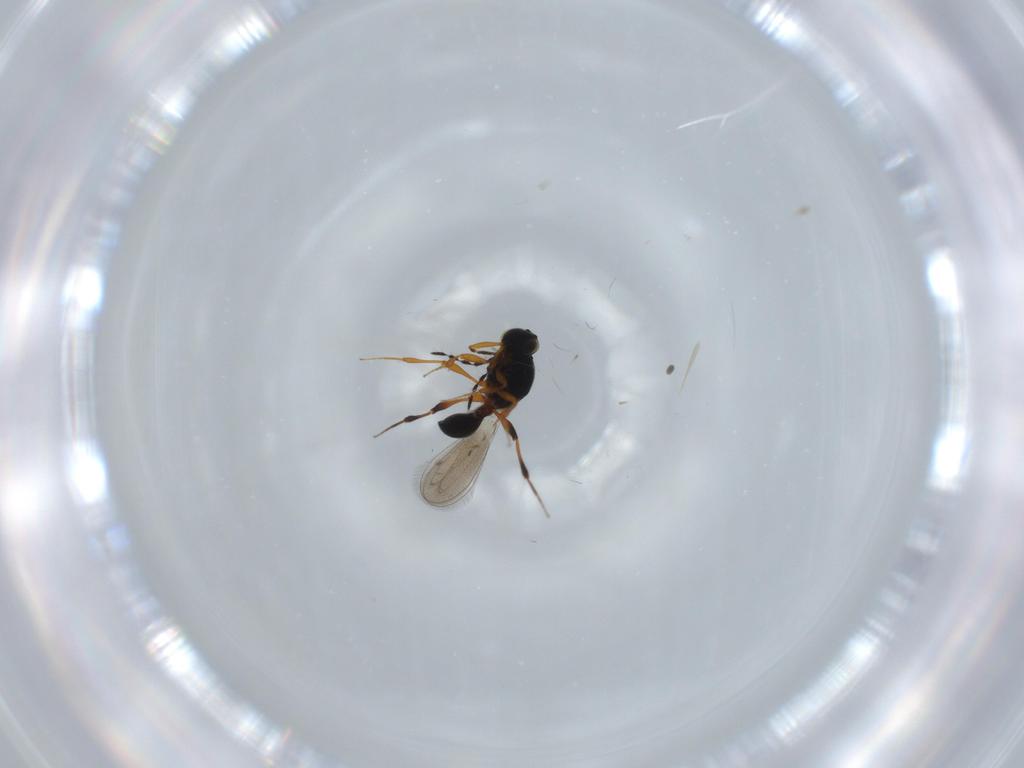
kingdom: Animalia
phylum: Arthropoda
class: Insecta
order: Hymenoptera
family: Platygastridae
